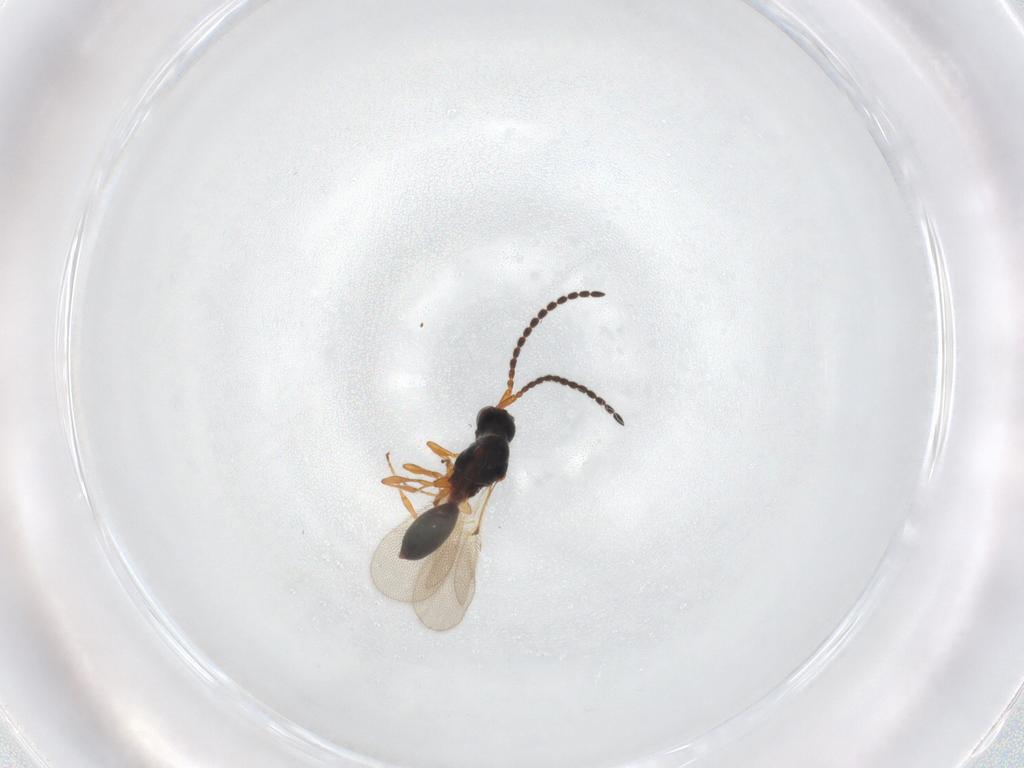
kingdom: Animalia
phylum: Arthropoda
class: Insecta
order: Hymenoptera
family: Diapriidae
